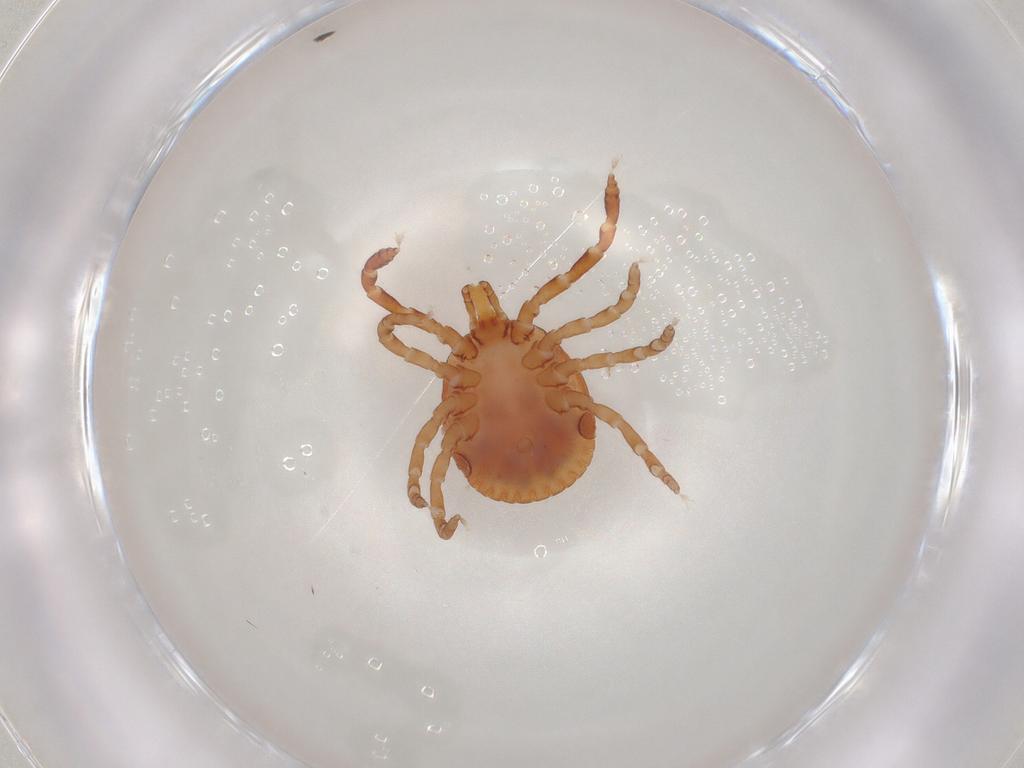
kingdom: Animalia
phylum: Arthropoda
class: Arachnida
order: Ixodida
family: Ixodidae
